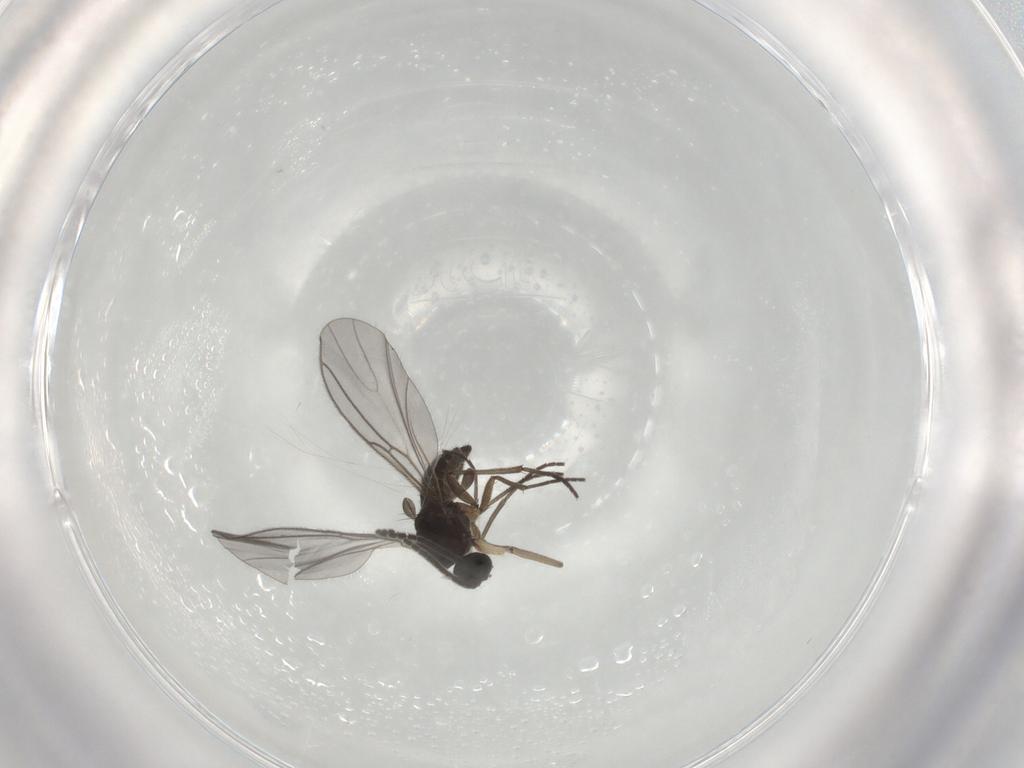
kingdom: Animalia
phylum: Arthropoda
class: Insecta
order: Diptera
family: Sciaridae
